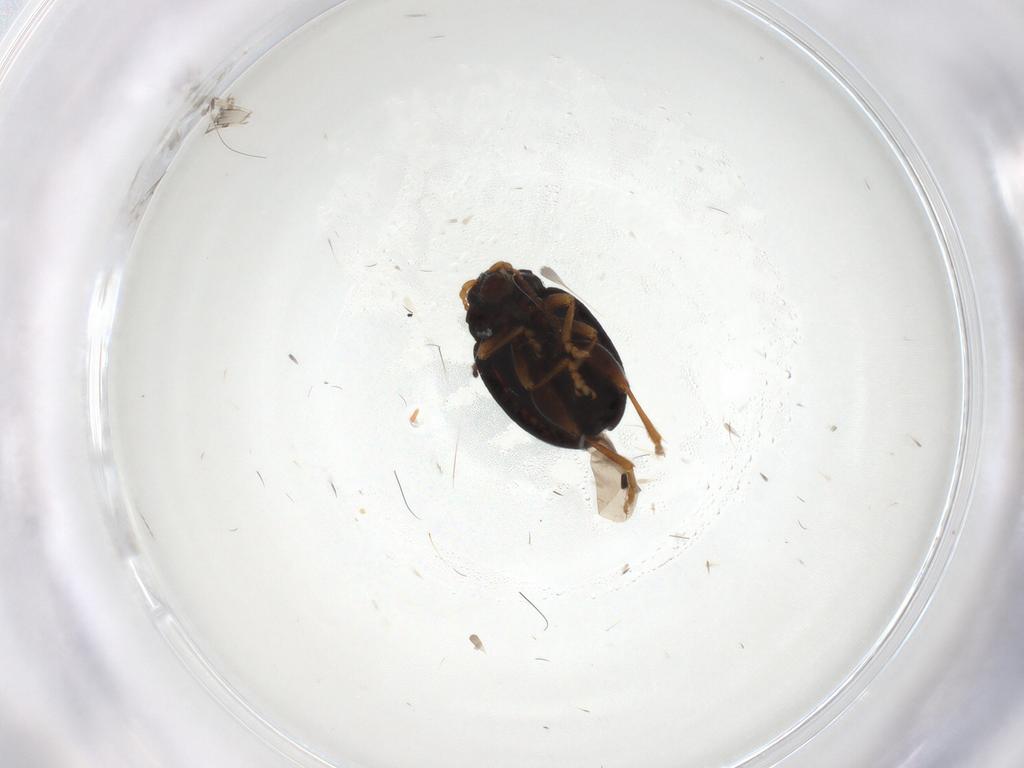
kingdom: Animalia
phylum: Arthropoda
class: Insecta
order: Coleoptera
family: Chrysomelidae
